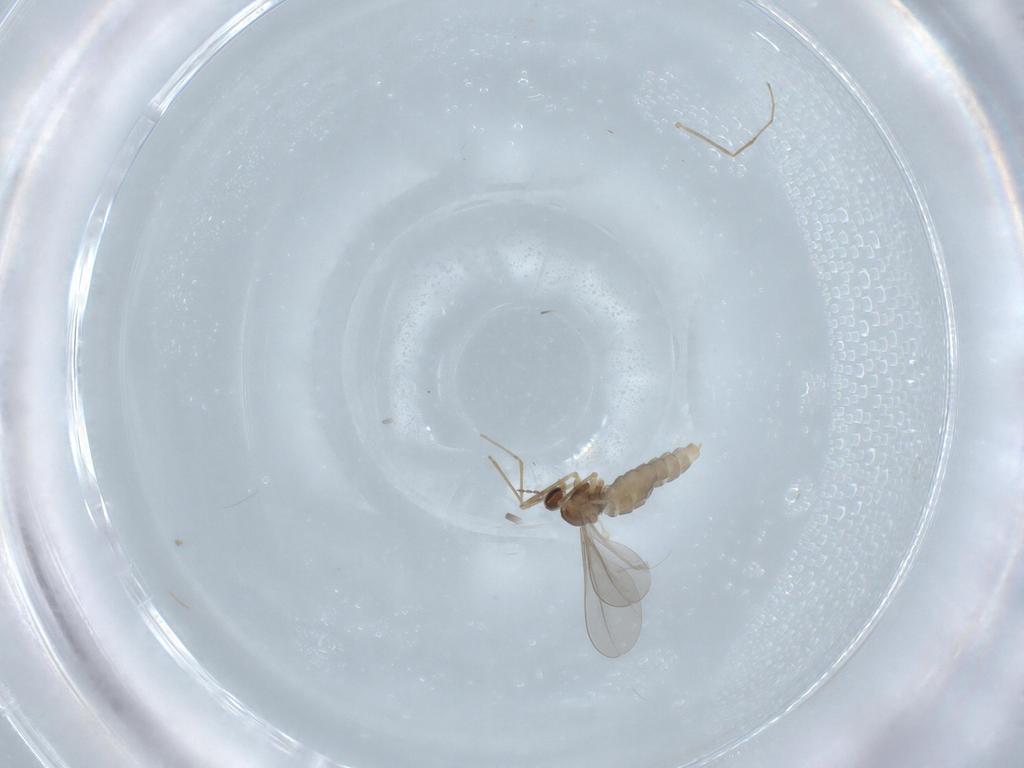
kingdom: Animalia
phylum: Arthropoda
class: Insecta
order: Diptera
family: Cecidomyiidae
